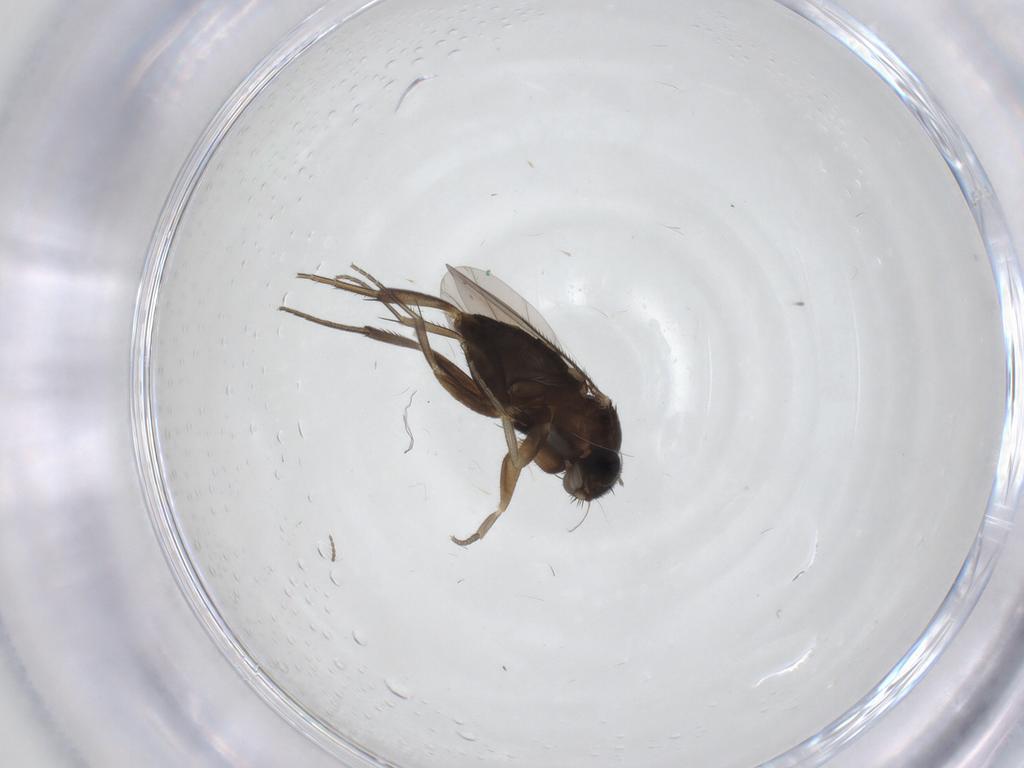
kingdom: Animalia
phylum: Arthropoda
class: Insecta
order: Diptera
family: Phoridae
